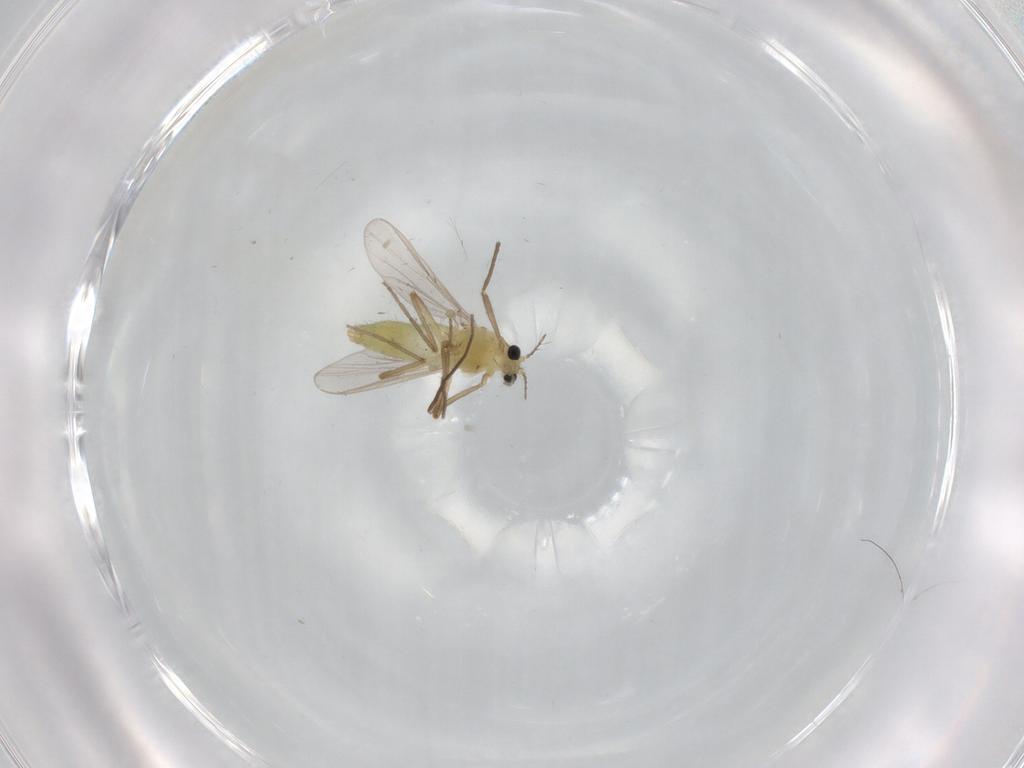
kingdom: Animalia
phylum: Arthropoda
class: Insecta
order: Diptera
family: Chironomidae
